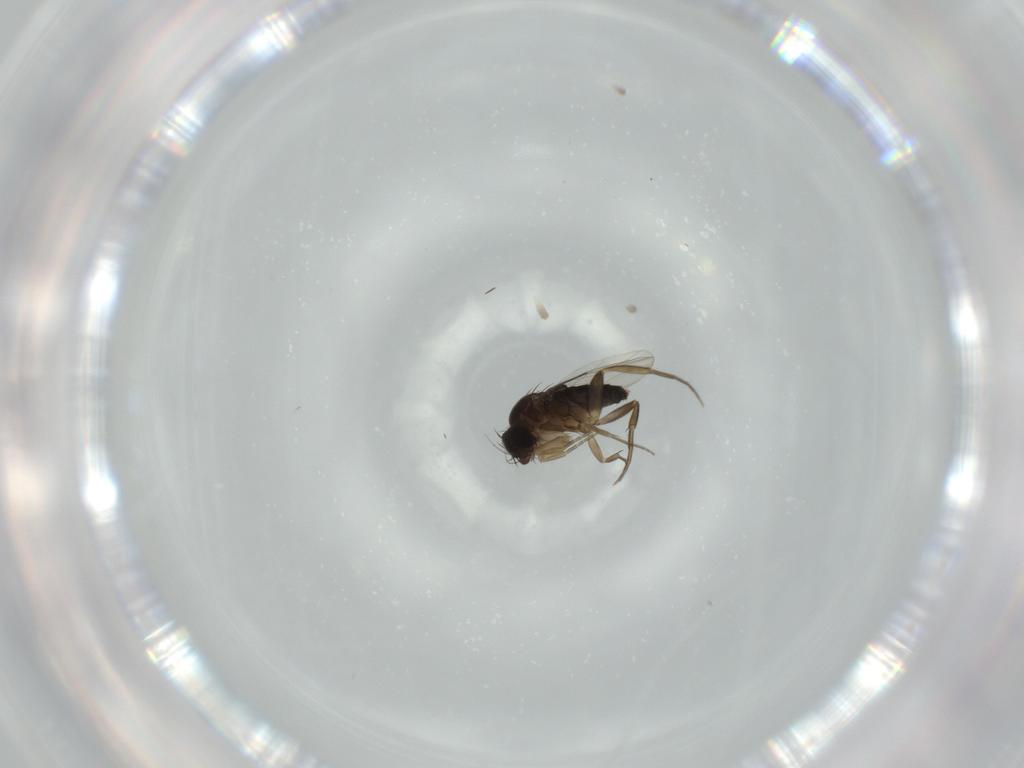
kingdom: Animalia
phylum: Arthropoda
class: Insecta
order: Diptera
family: Phoridae
